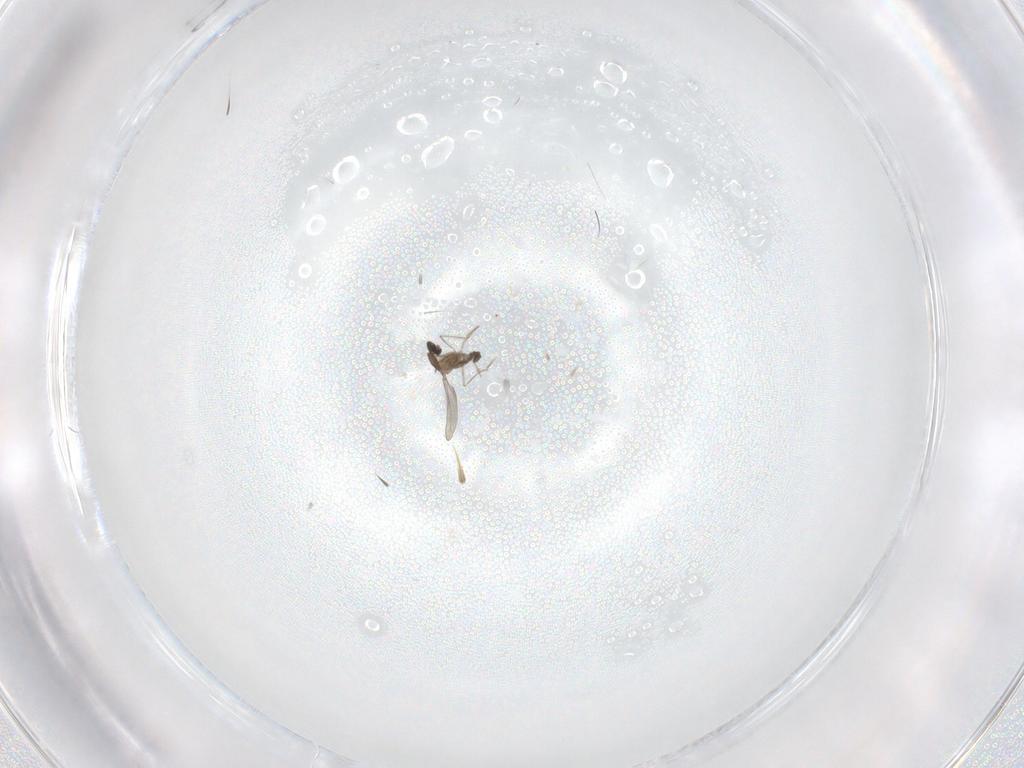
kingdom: Animalia
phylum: Arthropoda
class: Insecta
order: Diptera
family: Chironomidae
